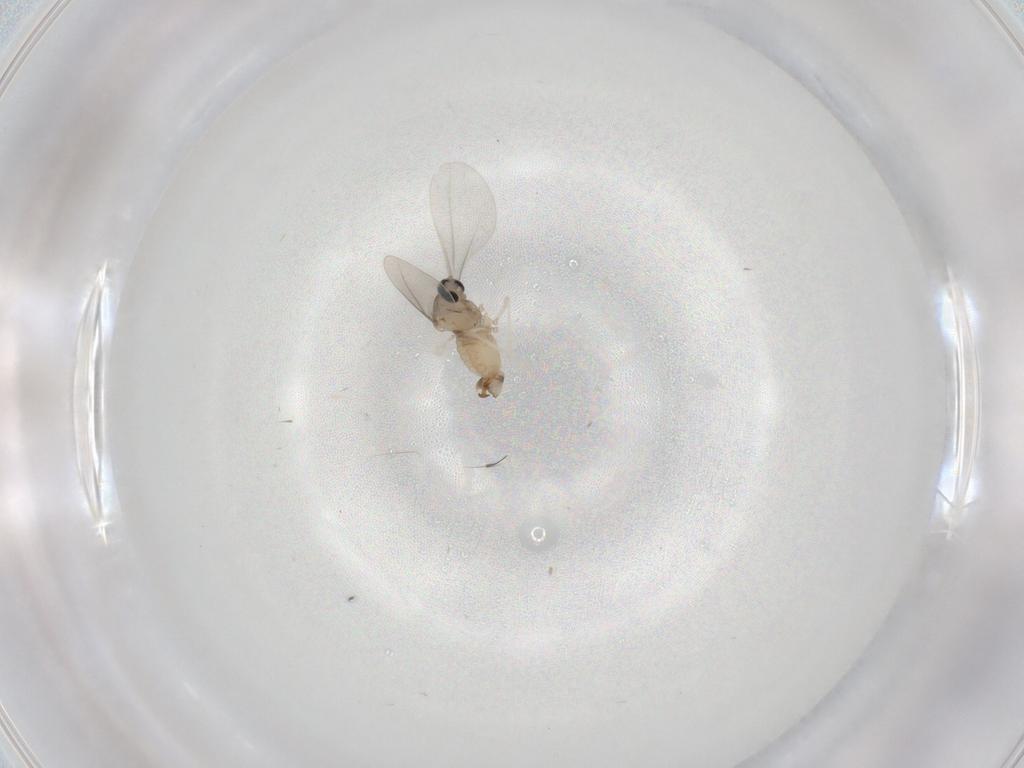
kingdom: Animalia
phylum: Arthropoda
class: Insecta
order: Diptera
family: Cecidomyiidae
